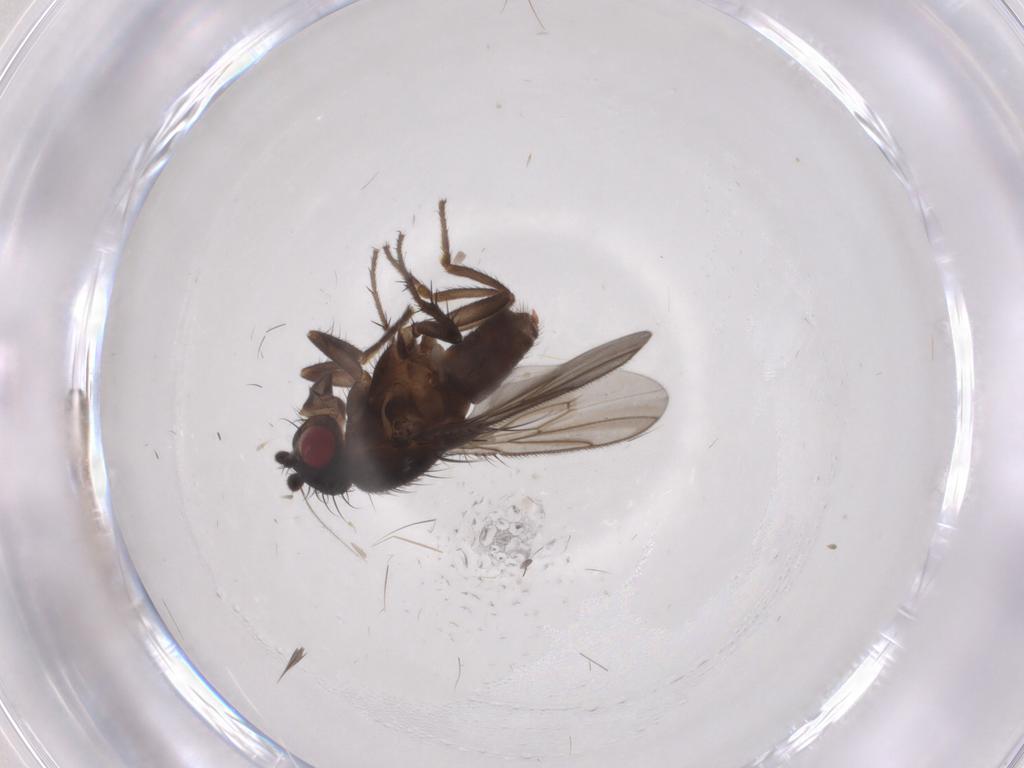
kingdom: Animalia
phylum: Arthropoda
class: Insecta
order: Diptera
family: Sphaeroceridae
